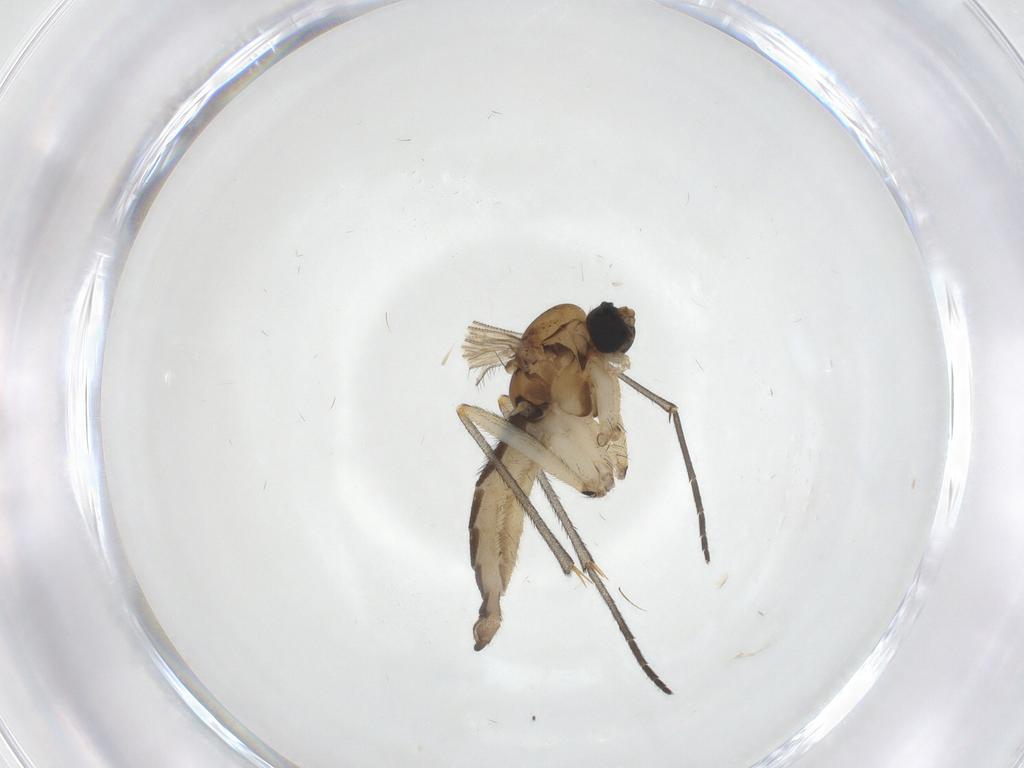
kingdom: Animalia
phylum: Arthropoda
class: Insecta
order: Diptera
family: Sciaridae
